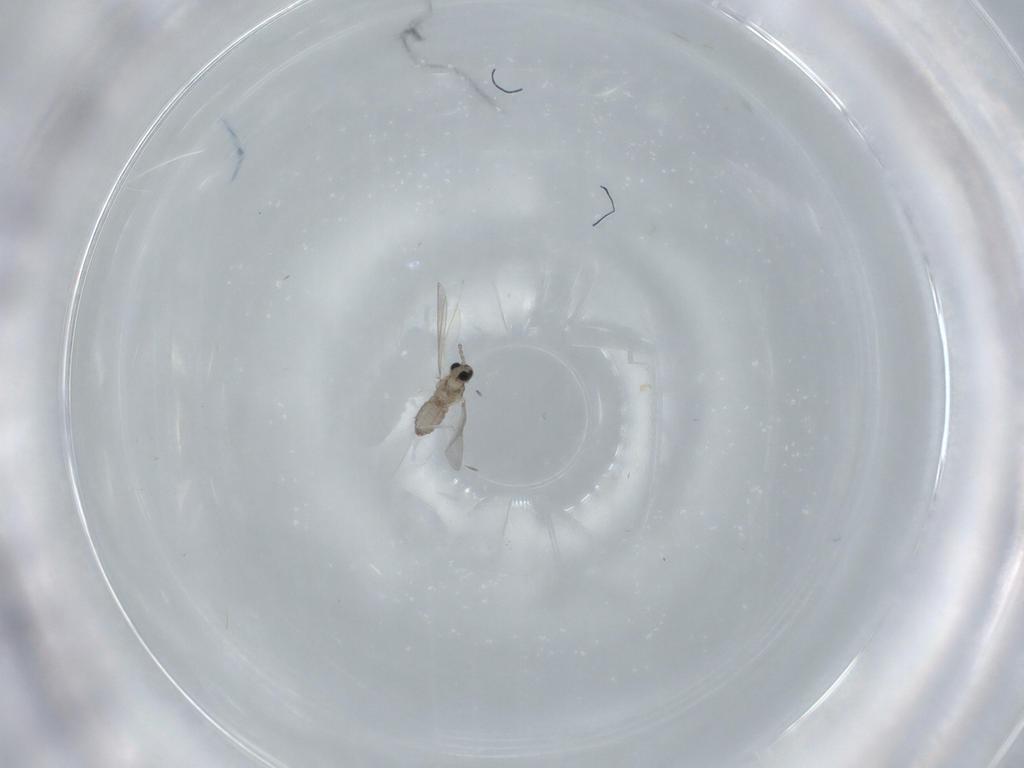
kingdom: Animalia
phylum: Arthropoda
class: Insecta
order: Diptera
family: Cecidomyiidae
